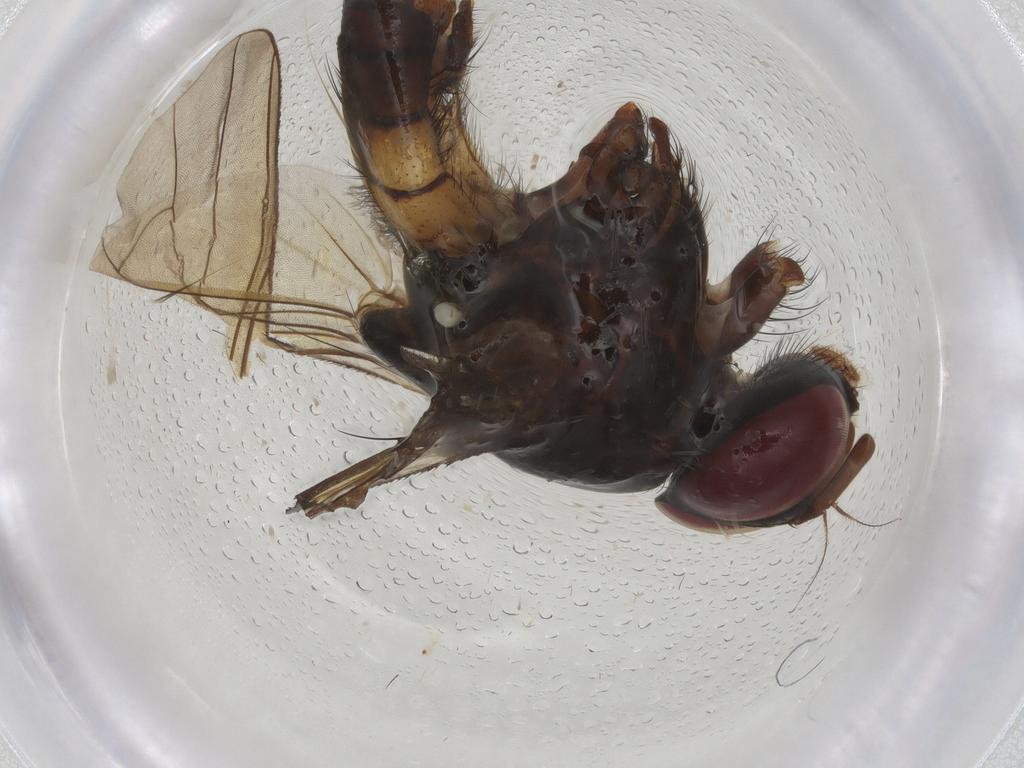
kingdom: Animalia
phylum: Arthropoda
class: Insecta
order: Diptera
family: Anthomyiidae
